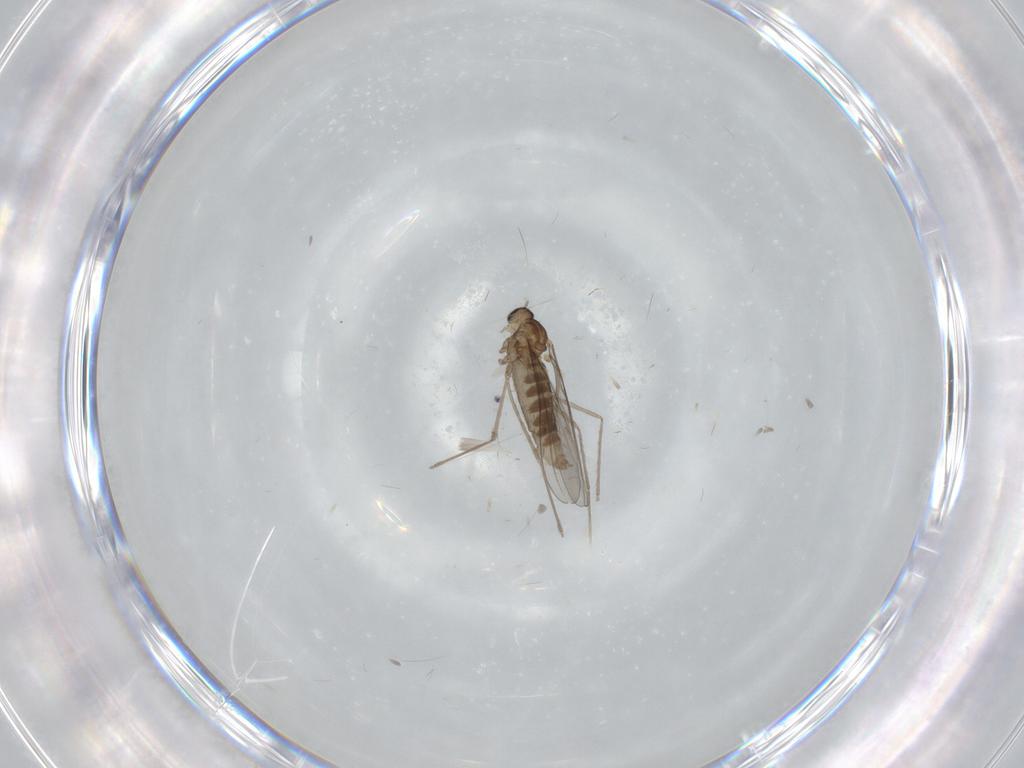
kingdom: Animalia
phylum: Arthropoda
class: Insecta
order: Diptera
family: Cecidomyiidae
